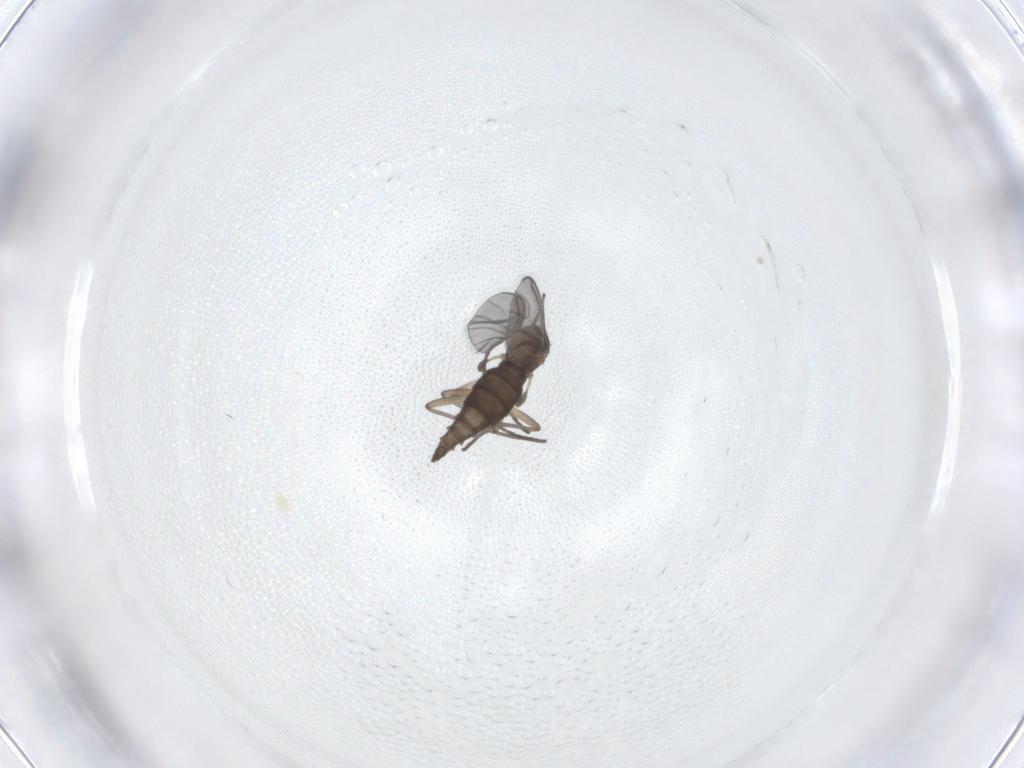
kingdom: Animalia
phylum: Arthropoda
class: Insecta
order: Diptera
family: Sciaridae
